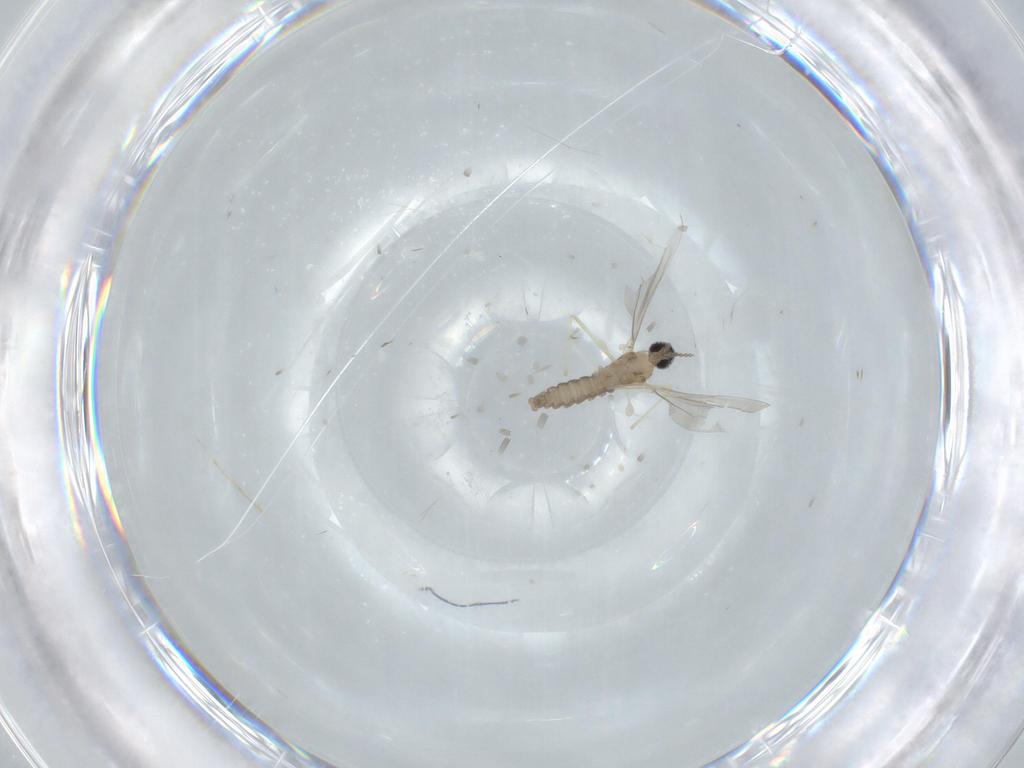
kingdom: Animalia
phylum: Arthropoda
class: Insecta
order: Diptera
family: Cecidomyiidae
